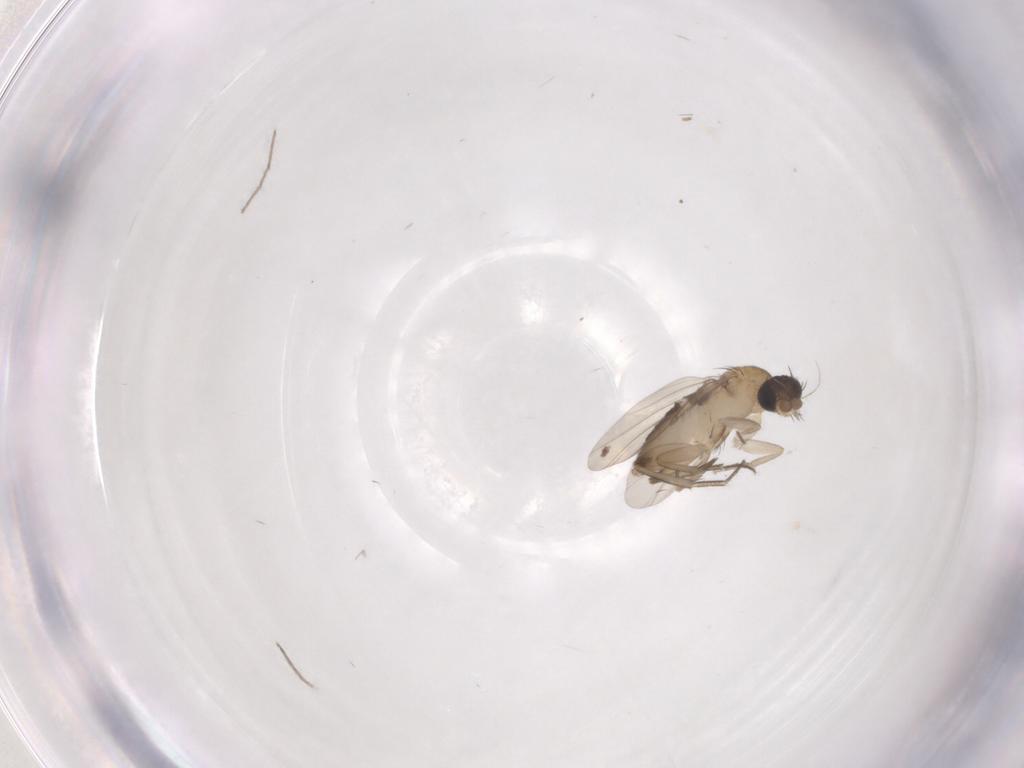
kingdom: Animalia
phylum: Arthropoda
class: Insecta
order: Diptera
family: Phoridae
